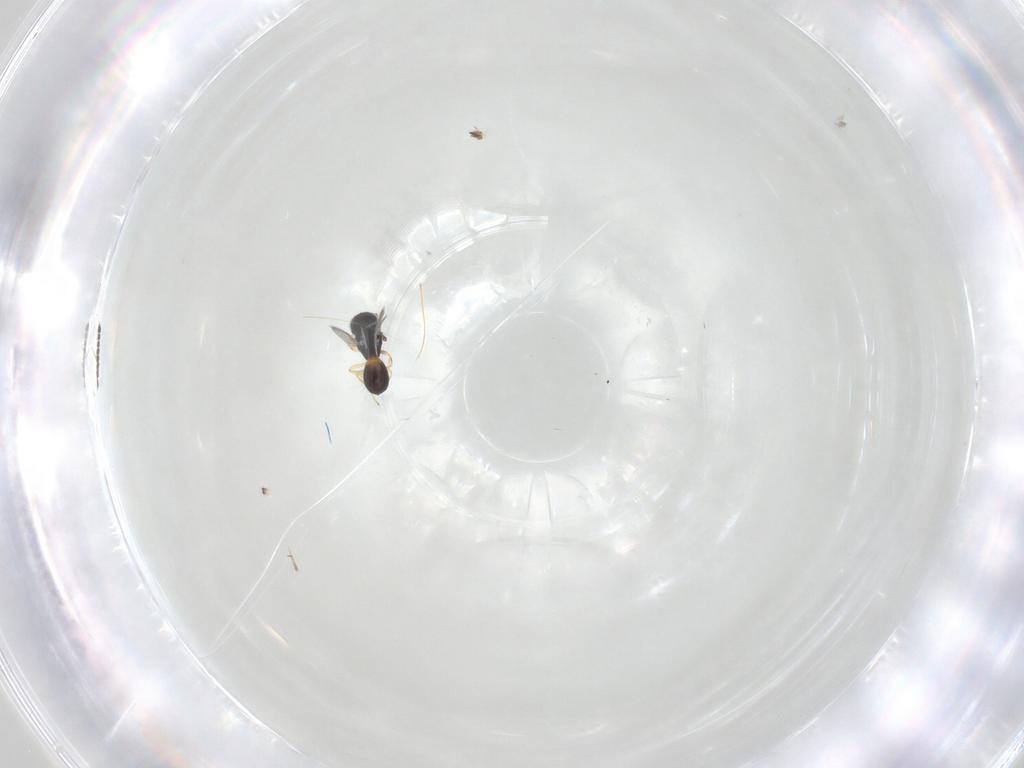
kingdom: Animalia
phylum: Arthropoda
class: Insecta
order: Hymenoptera
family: Scelionidae
